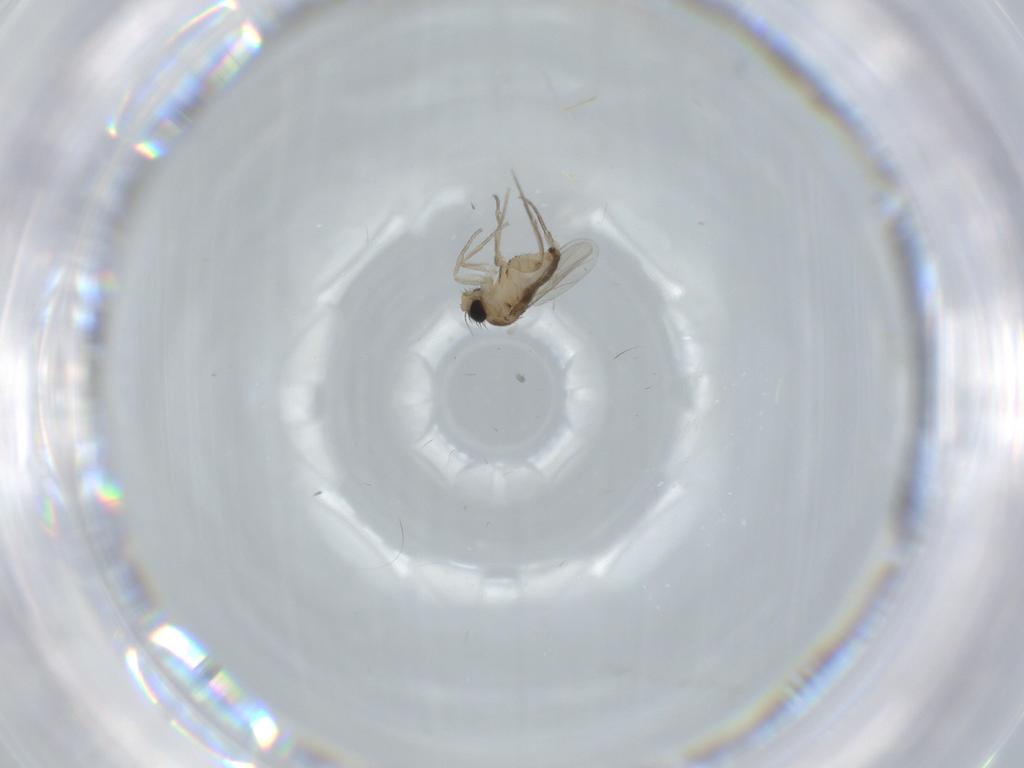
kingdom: Animalia
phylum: Arthropoda
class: Insecta
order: Diptera
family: Phoridae
